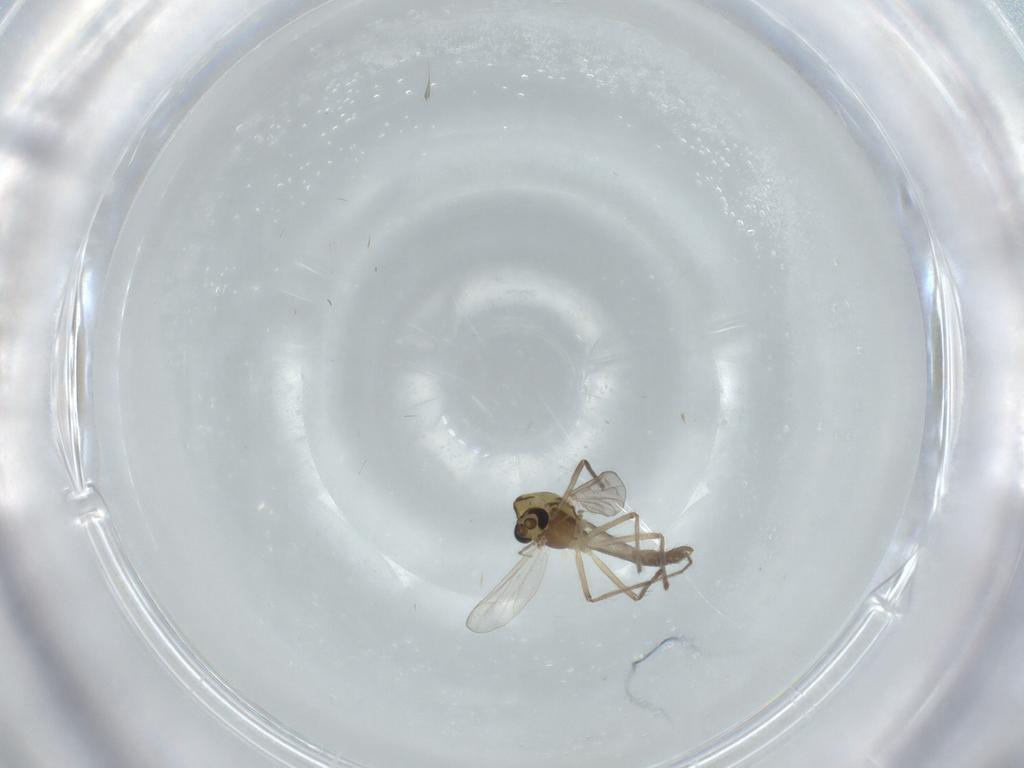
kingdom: Animalia
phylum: Arthropoda
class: Insecta
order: Diptera
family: Chironomidae
